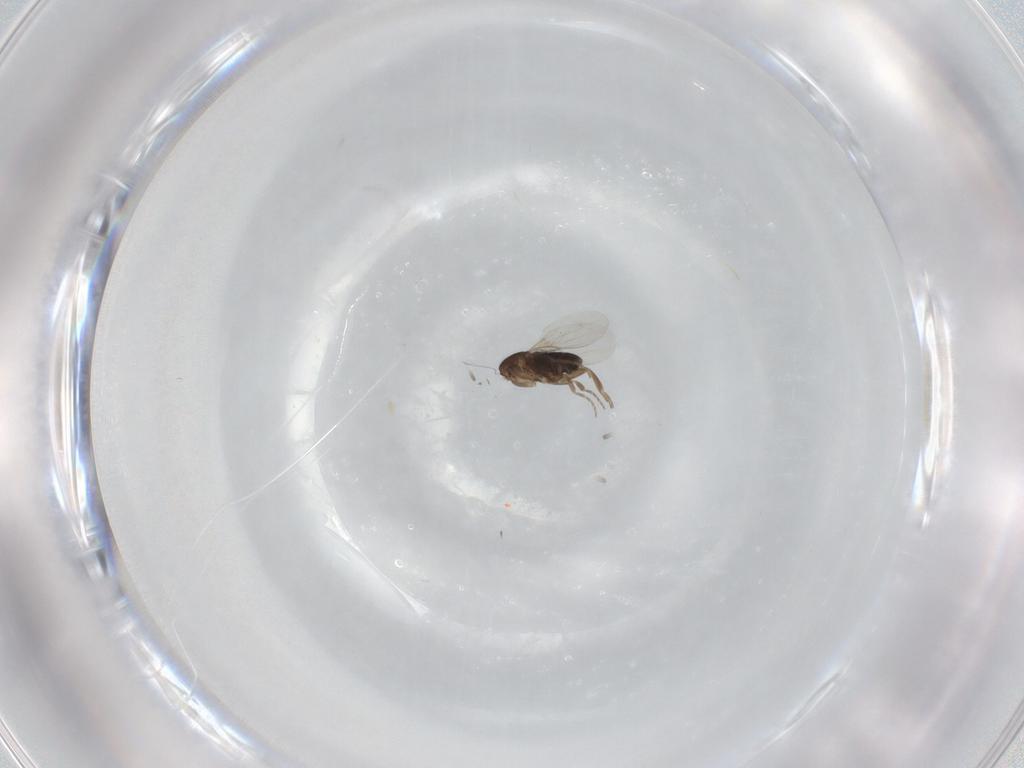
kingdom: Animalia
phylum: Arthropoda
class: Insecta
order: Diptera
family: Phoridae
